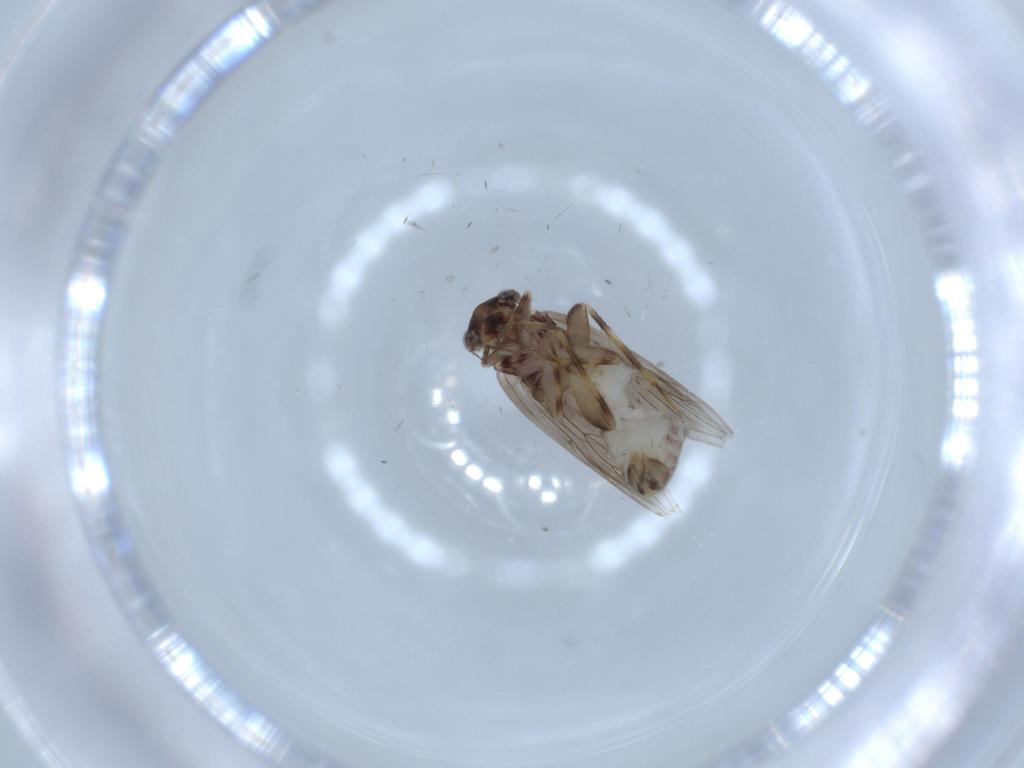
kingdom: Animalia
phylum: Arthropoda
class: Insecta
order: Psocodea
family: Lepidopsocidae
